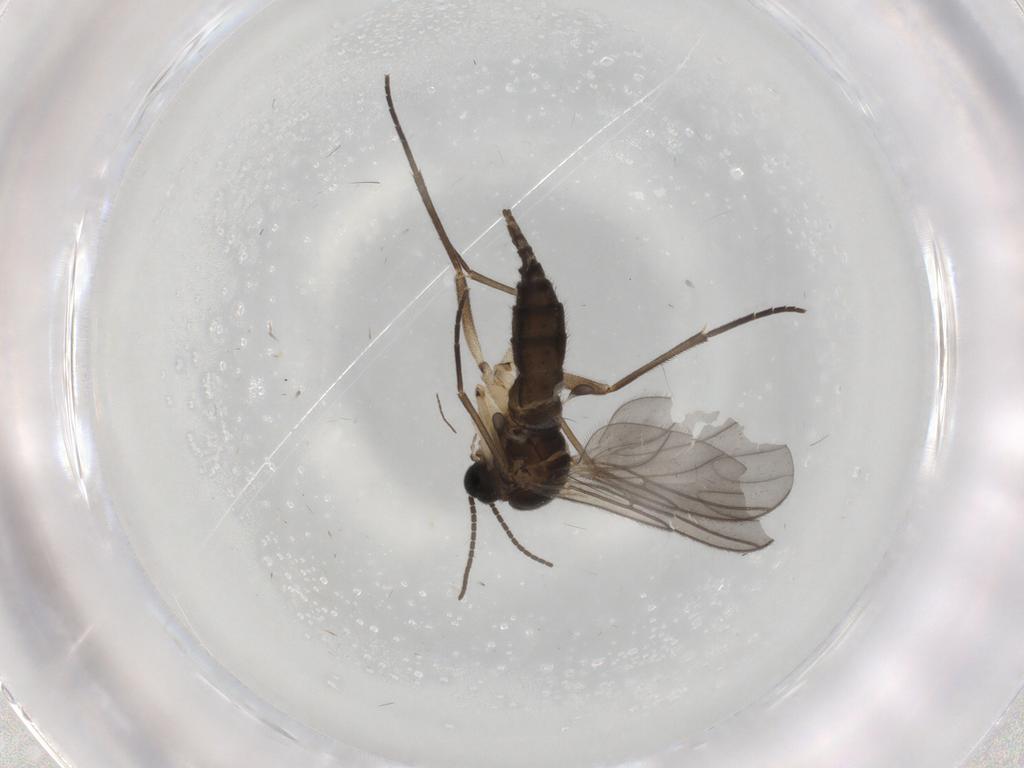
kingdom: Animalia
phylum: Arthropoda
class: Insecta
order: Diptera
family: Sciaridae
